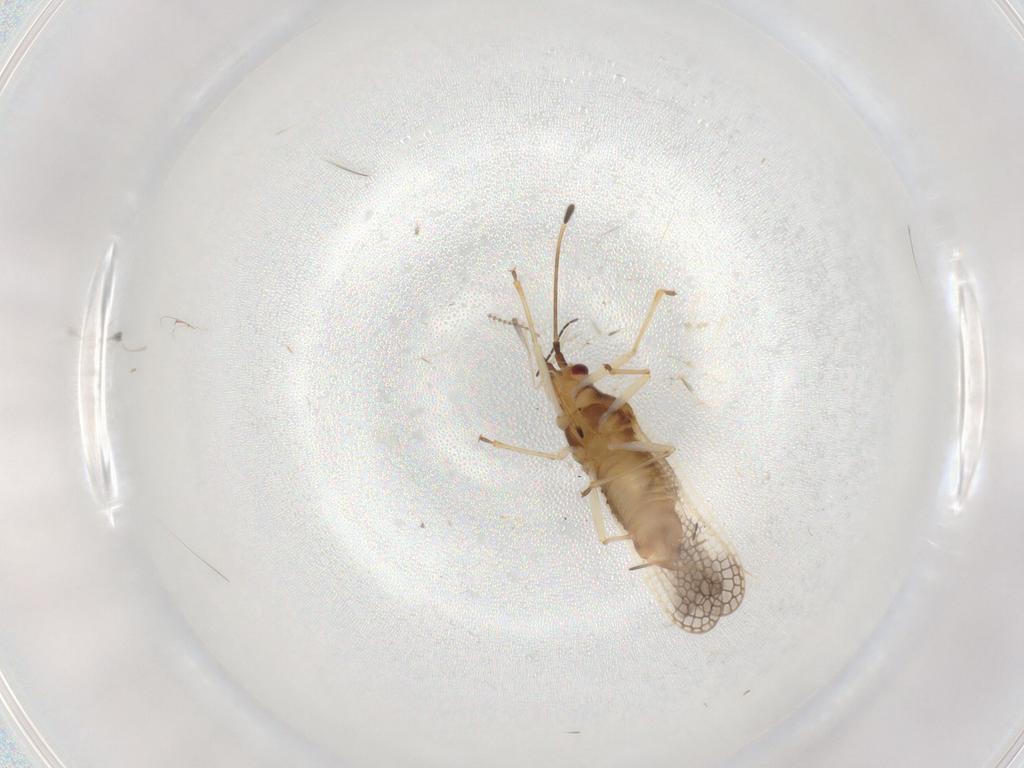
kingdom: Animalia
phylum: Arthropoda
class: Insecta
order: Hemiptera
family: Tingidae
